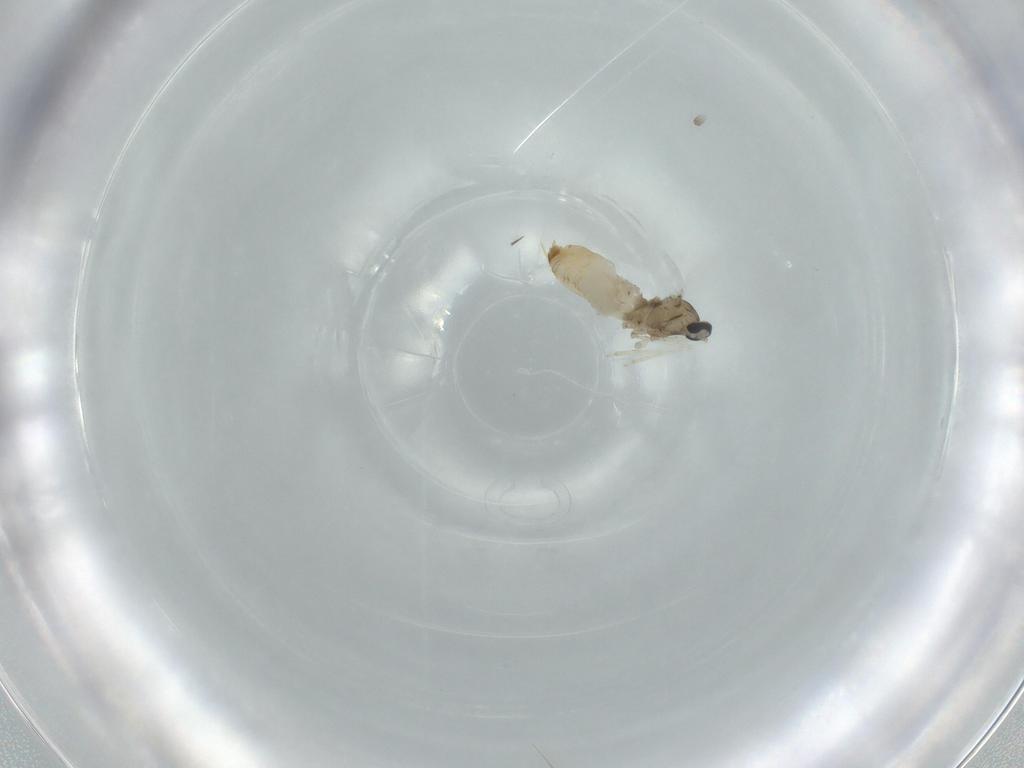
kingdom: Animalia
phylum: Arthropoda
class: Insecta
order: Diptera
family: Cecidomyiidae
